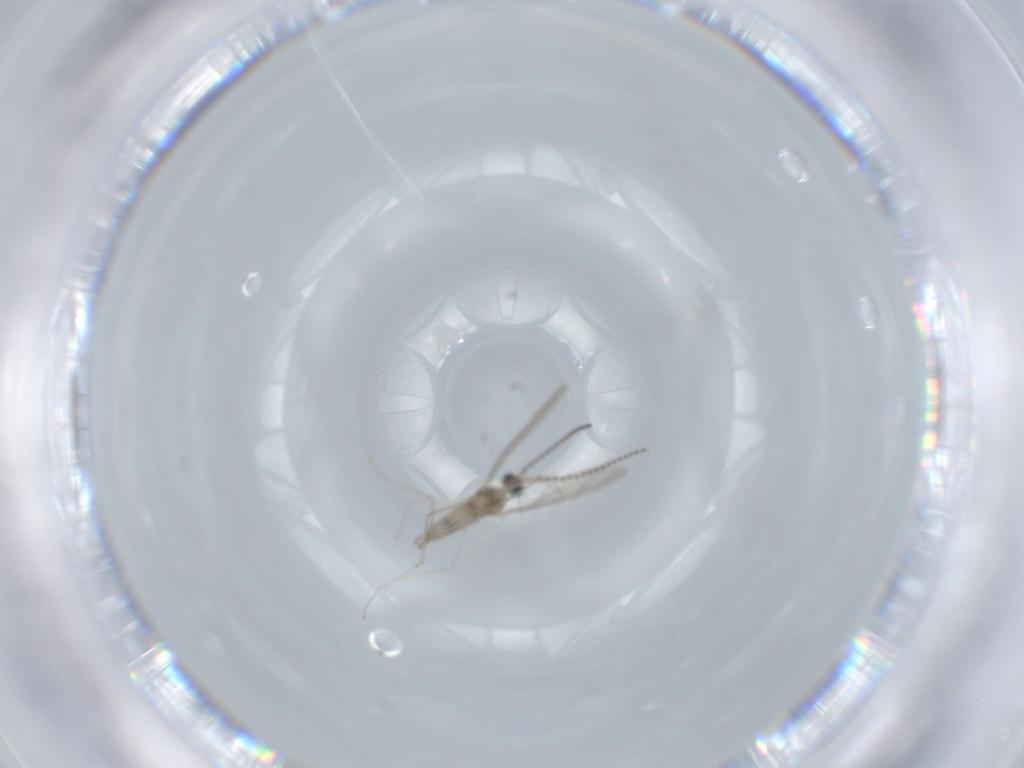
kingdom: Animalia
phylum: Arthropoda
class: Insecta
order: Diptera
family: Cecidomyiidae
